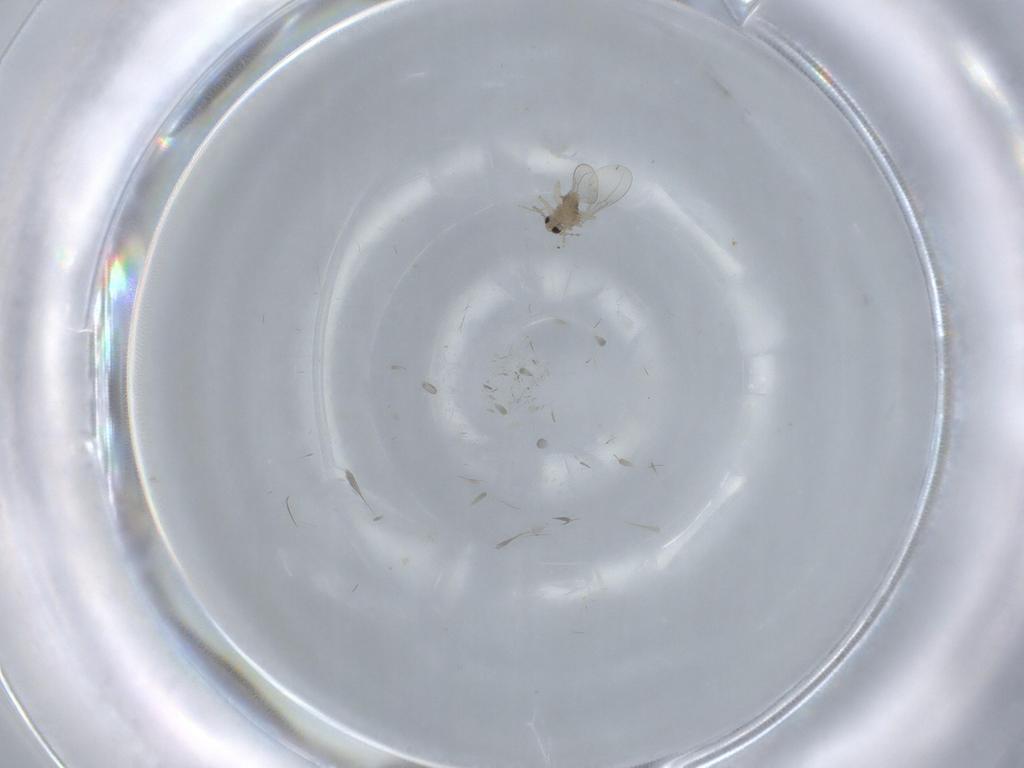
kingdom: Animalia
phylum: Arthropoda
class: Insecta
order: Diptera
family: Cecidomyiidae
